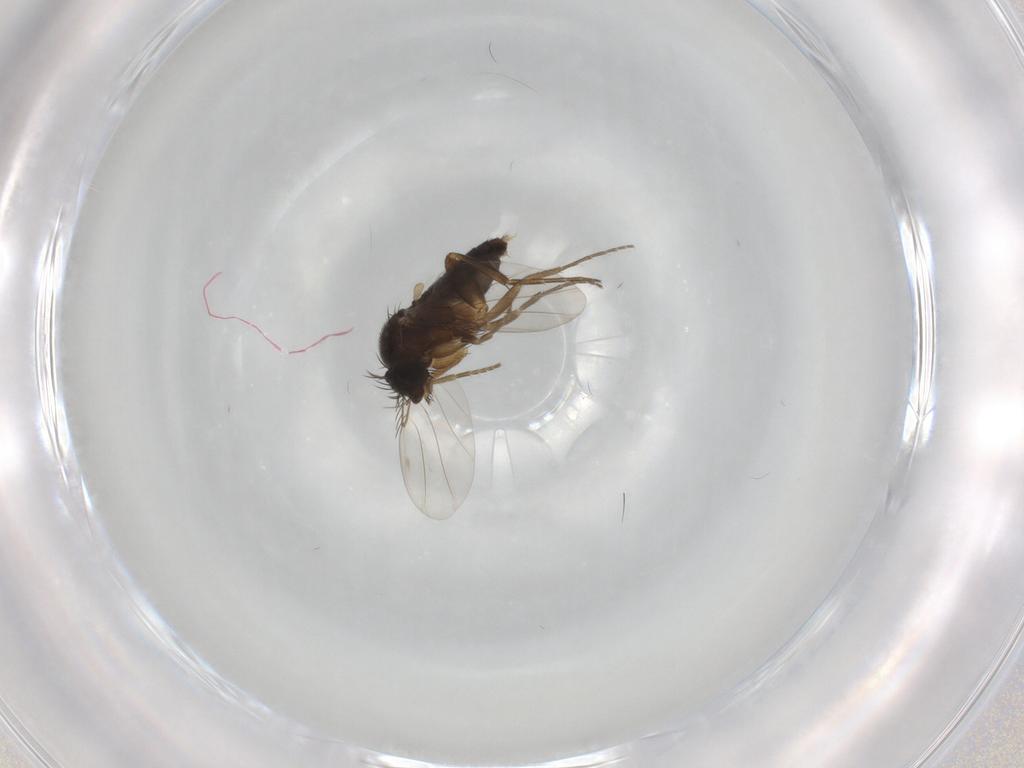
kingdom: Animalia
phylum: Arthropoda
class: Insecta
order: Diptera
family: Phoridae
